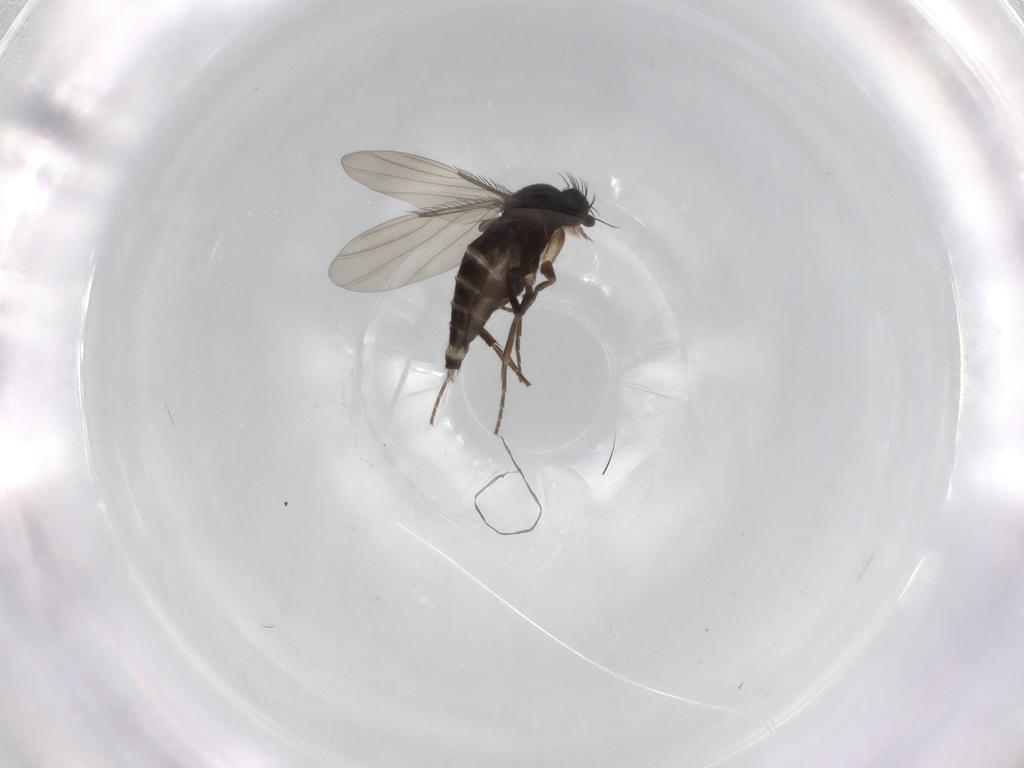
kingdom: Animalia
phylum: Arthropoda
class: Insecta
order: Diptera
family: Phoridae
